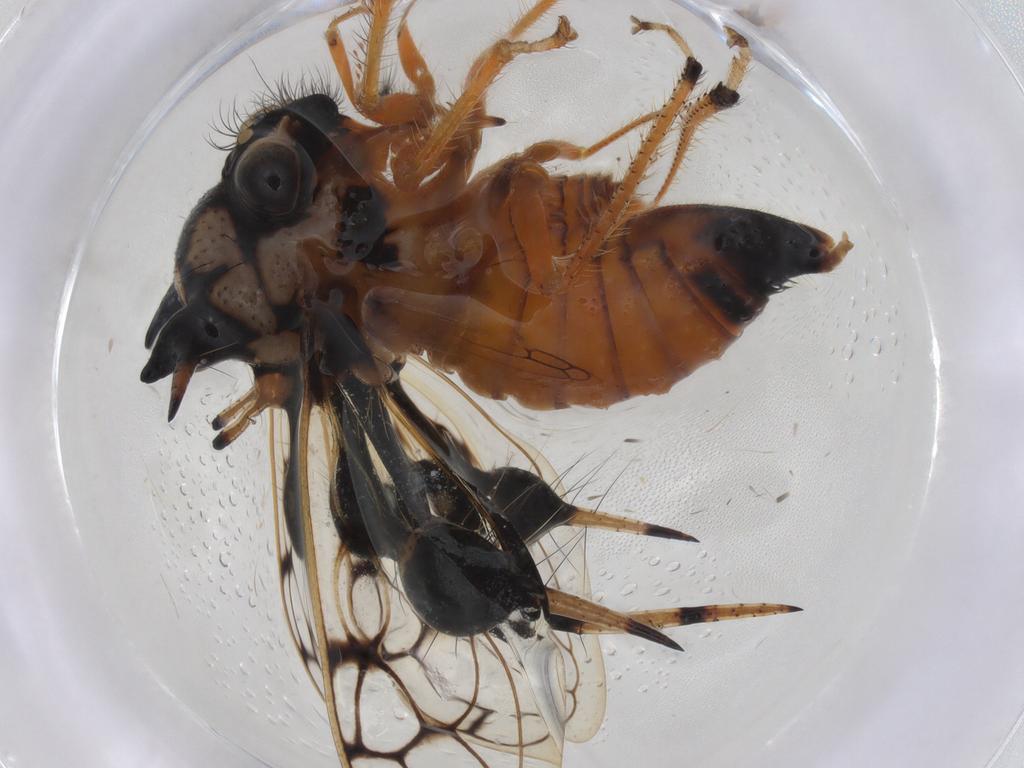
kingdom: Animalia
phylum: Arthropoda
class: Insecta
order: Hemiptera
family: Membracidae
